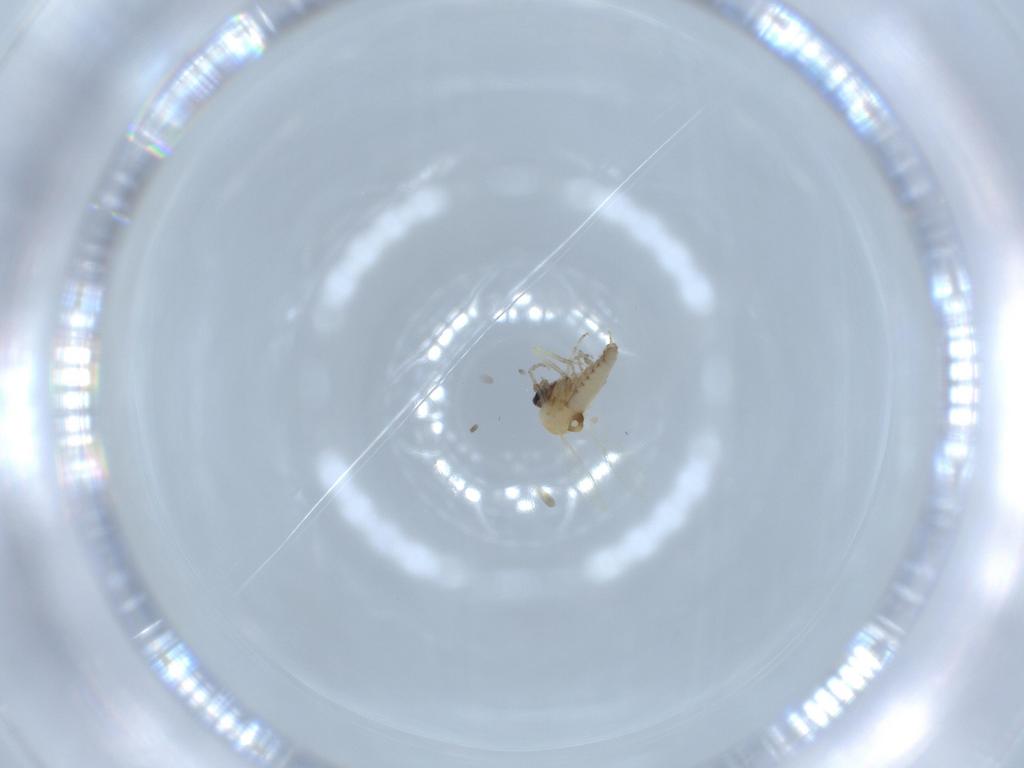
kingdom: Animalia
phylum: Arthropoda
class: Insecta
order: Diptera
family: Ceratopogonidae
